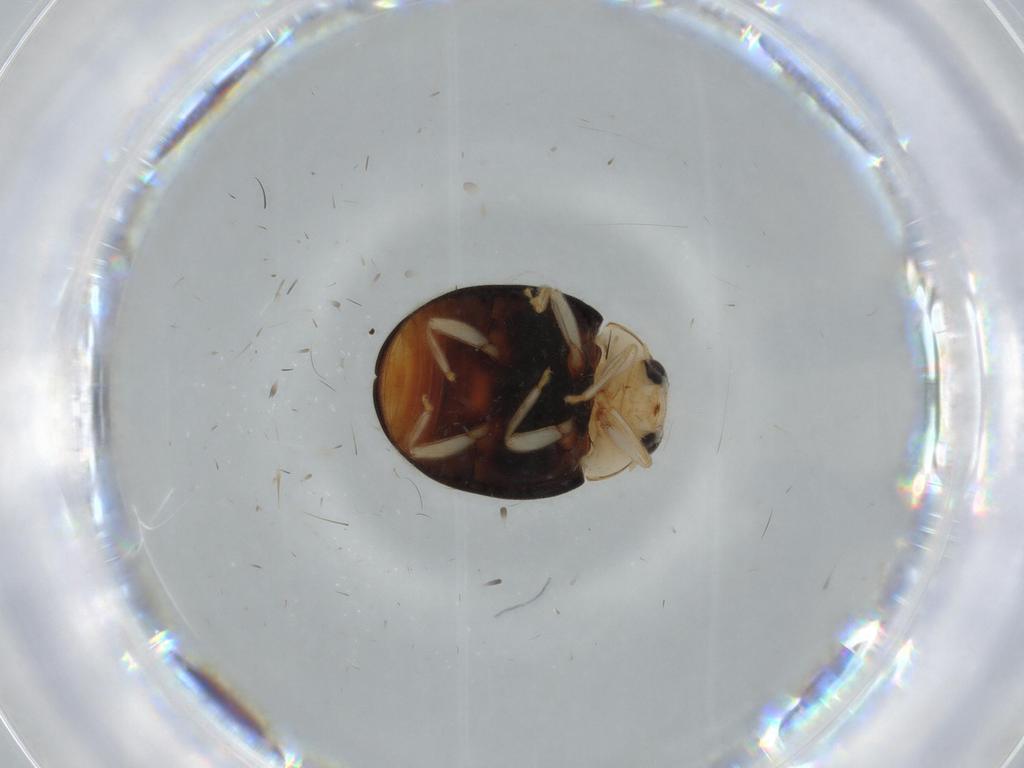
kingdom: Animalia
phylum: Arthropoda
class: Insecta
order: Coleoptera
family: Coccinellidae
